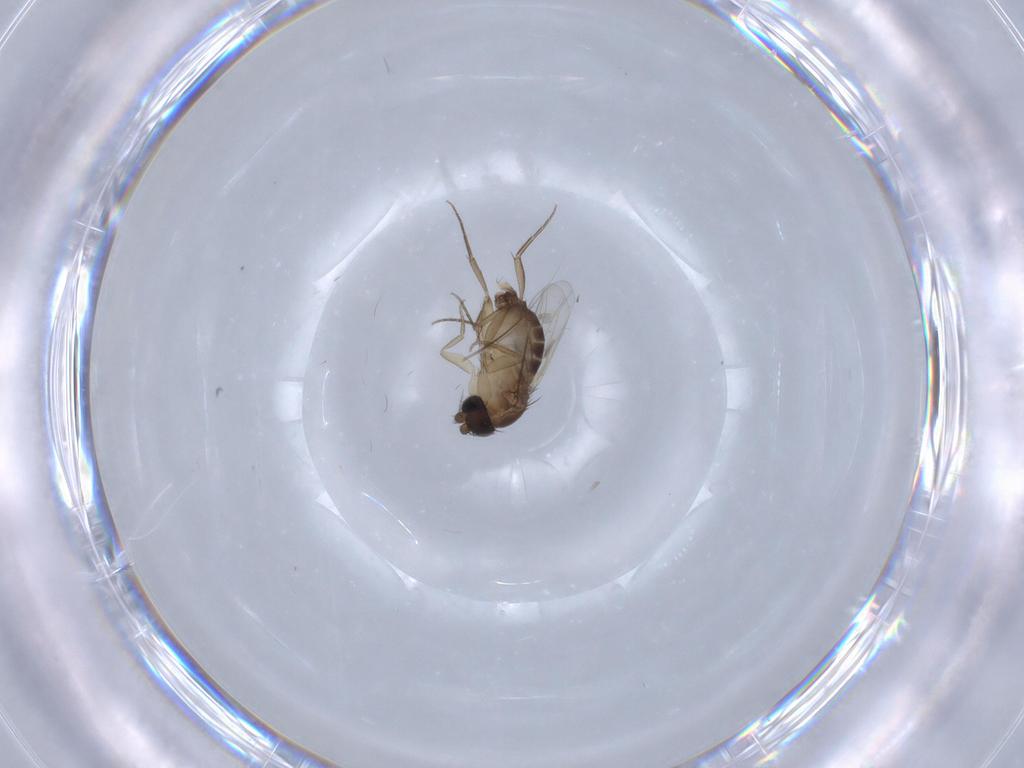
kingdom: Animalia
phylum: Arthropoda
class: Insecta
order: Diptera
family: Phoridae
